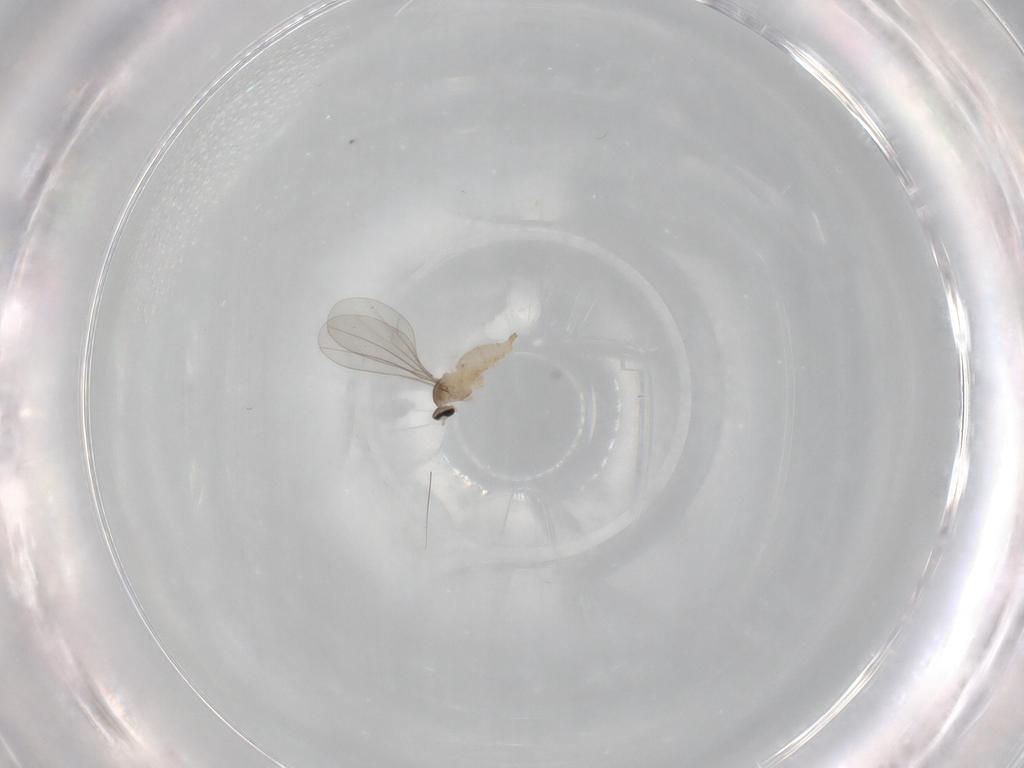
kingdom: Animalia
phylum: Arthropoda
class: Insecta
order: Diptera
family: Cecidomyiidae
